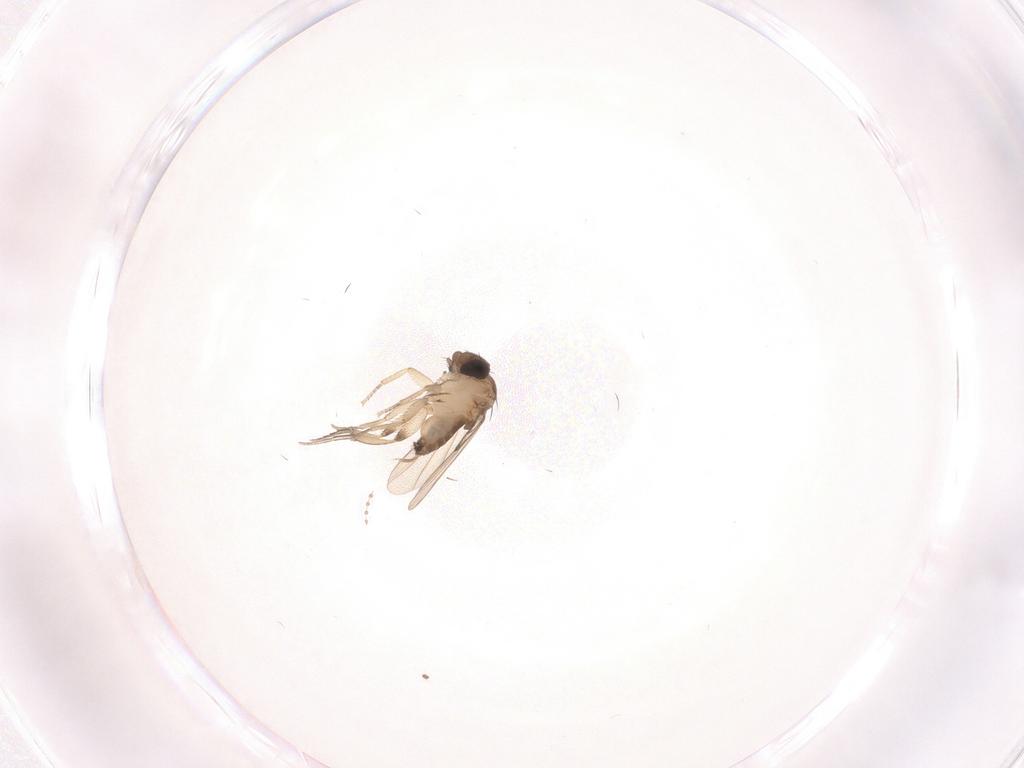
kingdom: Animalia
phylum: Arthropoda
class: Insecta
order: Diptera
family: Phoridae
